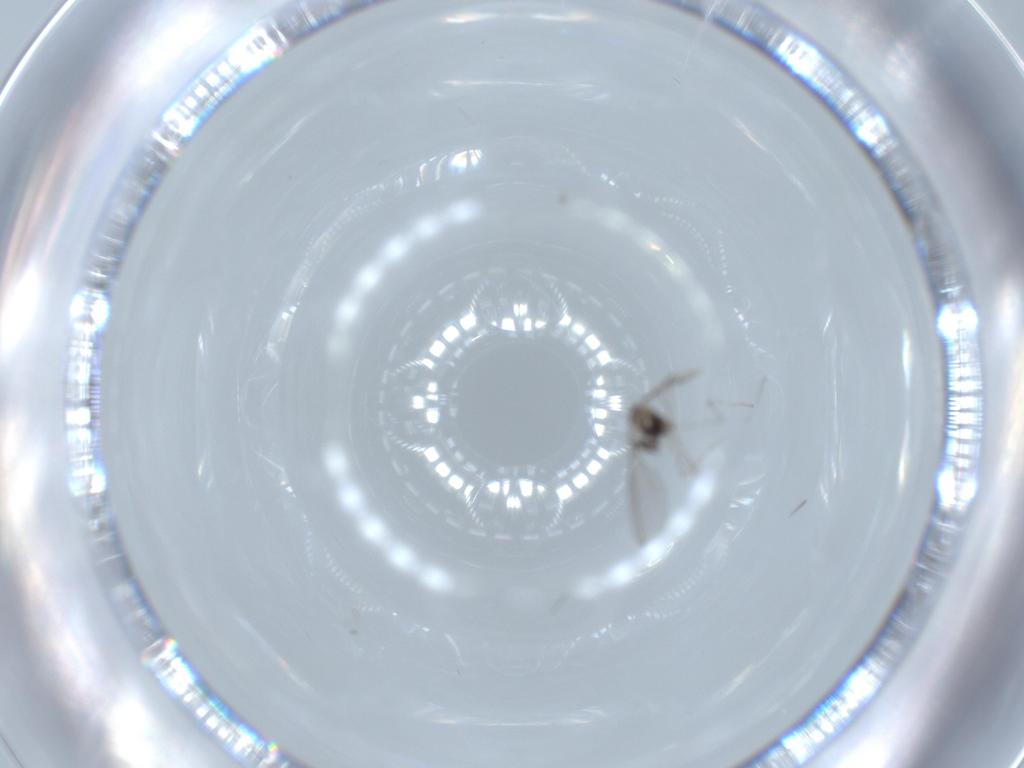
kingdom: Animalia
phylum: Arthropoda
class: Insecta
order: Diptera
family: Cecidomyiidae
